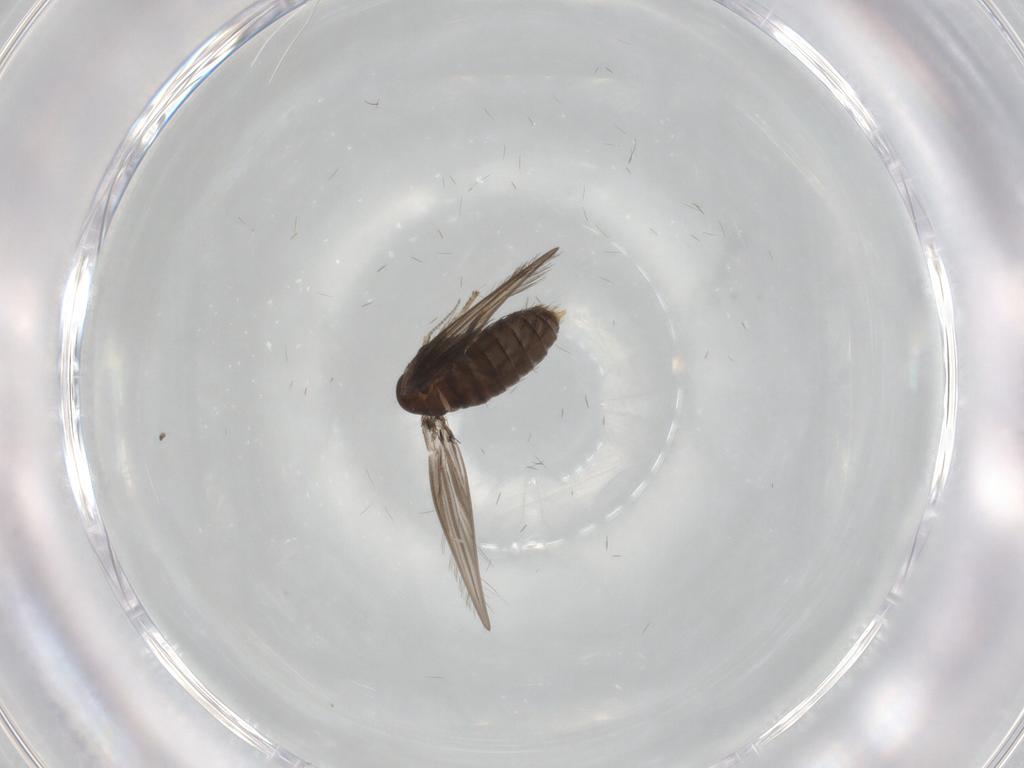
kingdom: Animalia
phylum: Arthropoda
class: Insecta
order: Diptera
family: Psychodidae
